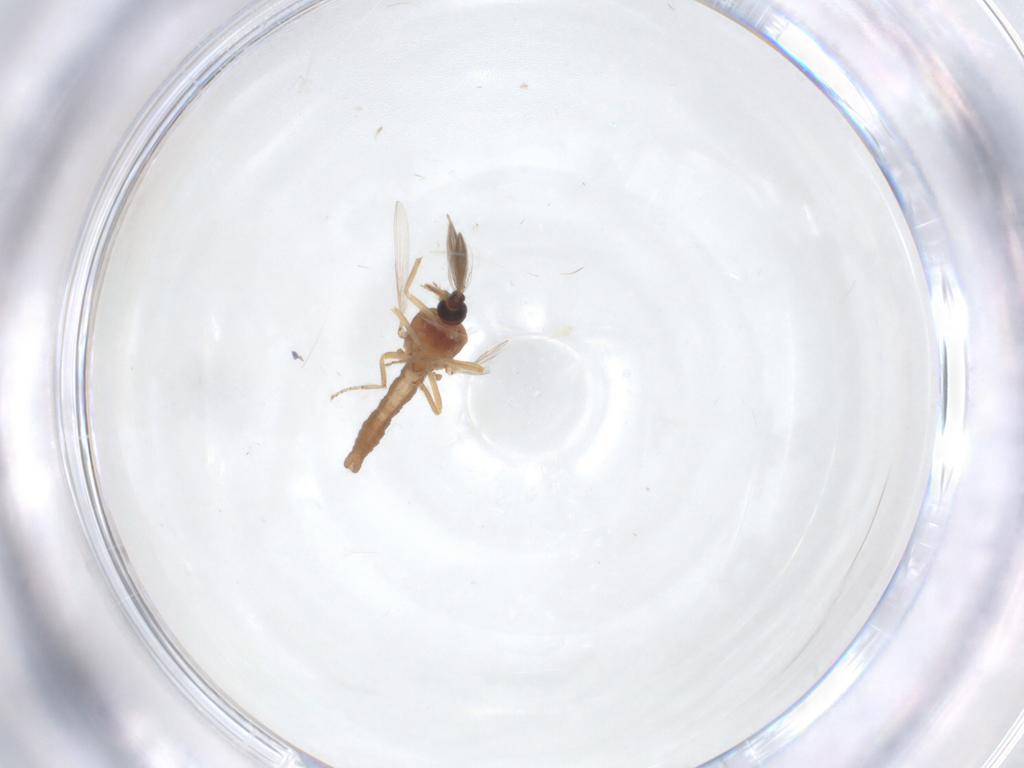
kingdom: Animalia
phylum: Arthropoda
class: Insecta
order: Diptera
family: Ceratopogonidae
